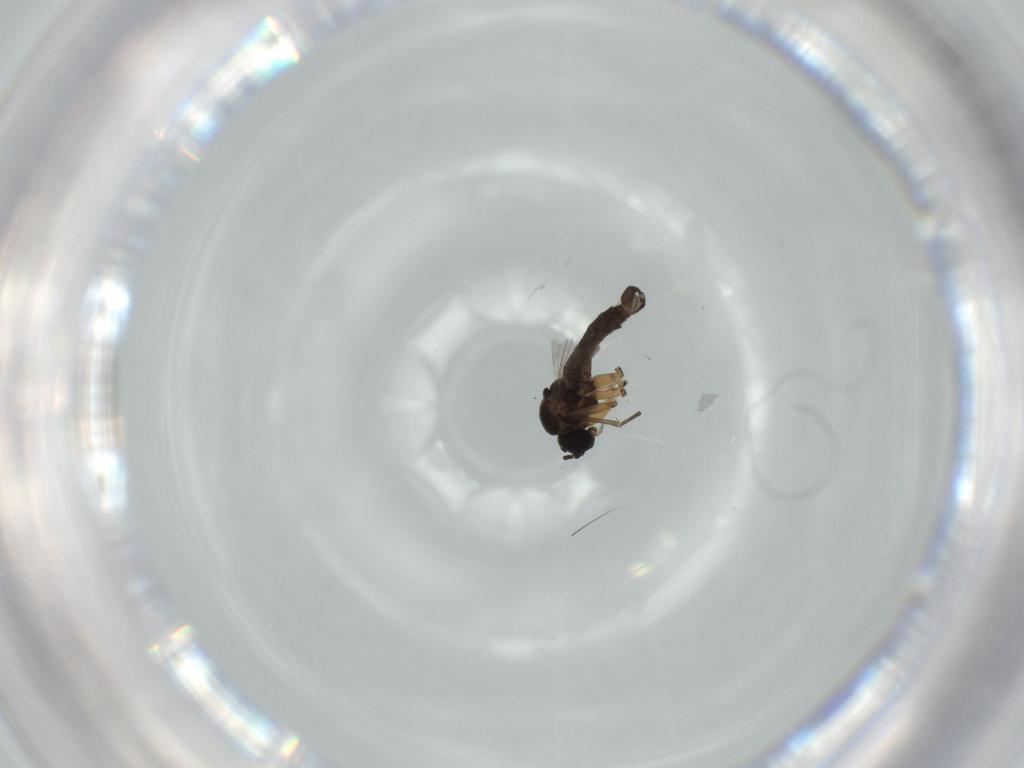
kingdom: Animalia
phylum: Arthropoda
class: Insecta
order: Diptera
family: Sciaridae
